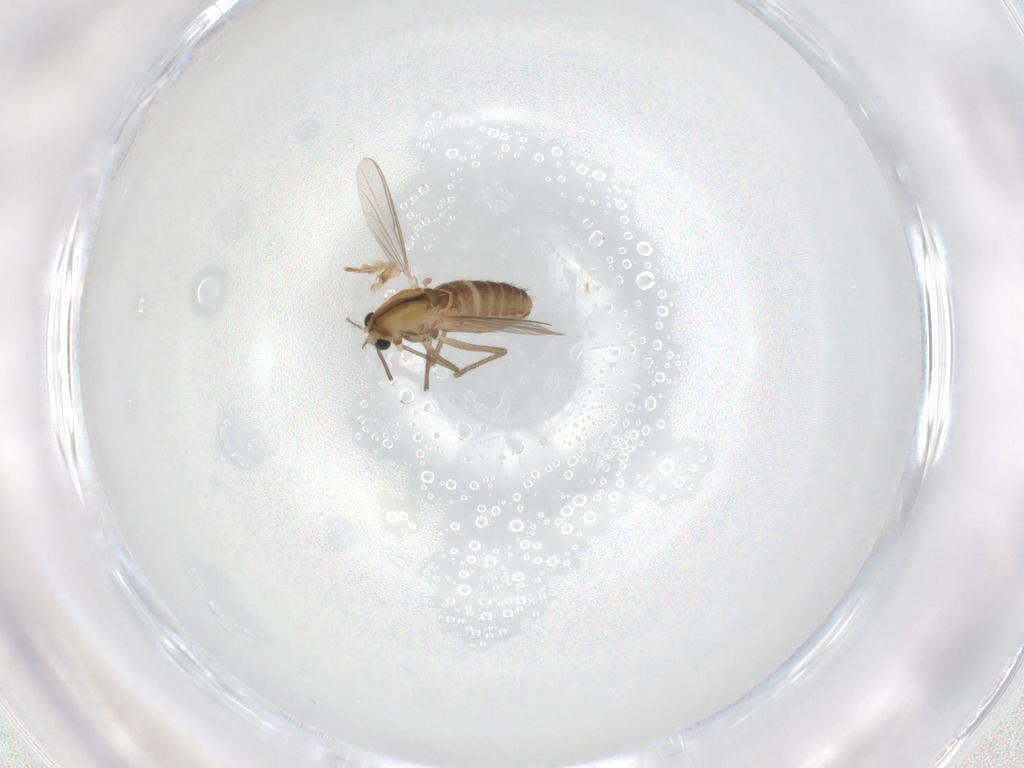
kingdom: Animalia
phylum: Arthropoda
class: Insecta
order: Diptera
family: Chironomidae
